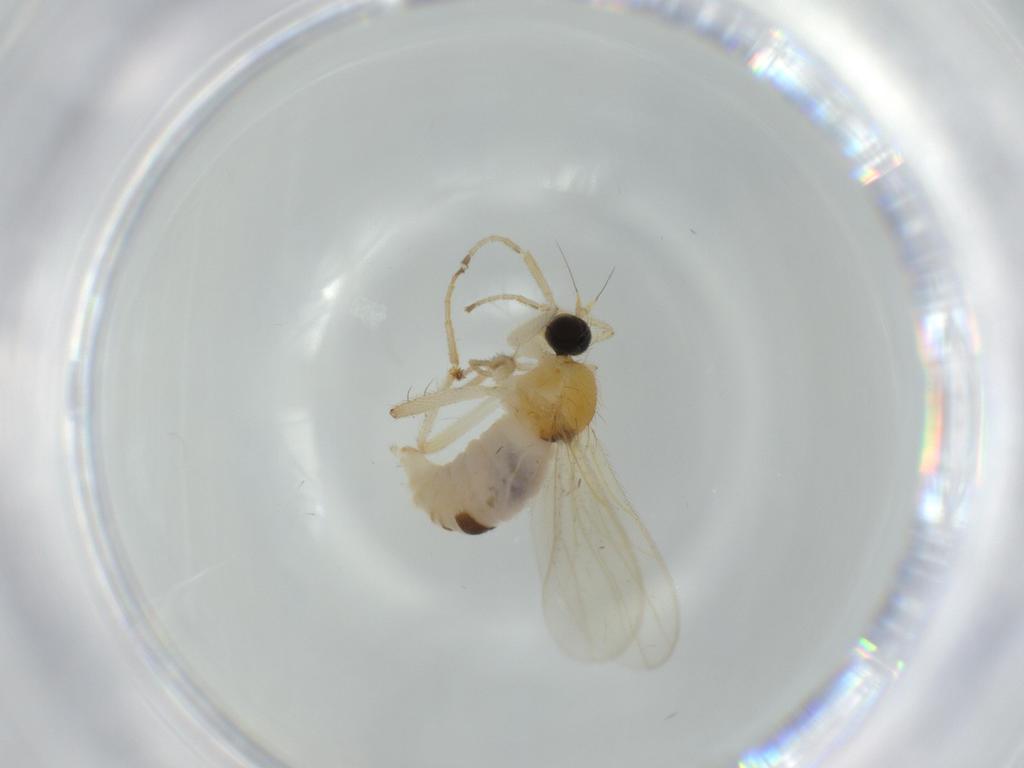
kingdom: Animalia
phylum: Arthropoda
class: Insecta
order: Diptera
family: Hybotidae
